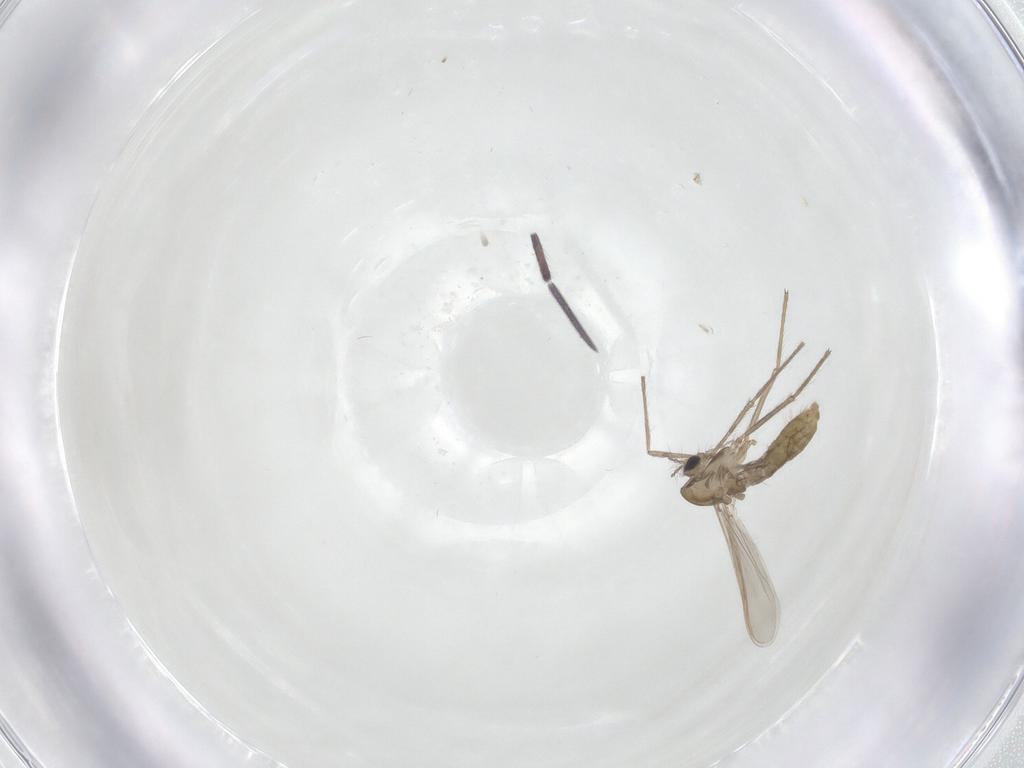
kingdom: Animalia
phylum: Arthropoda
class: Insecta
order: Diptera
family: Chironomidae
